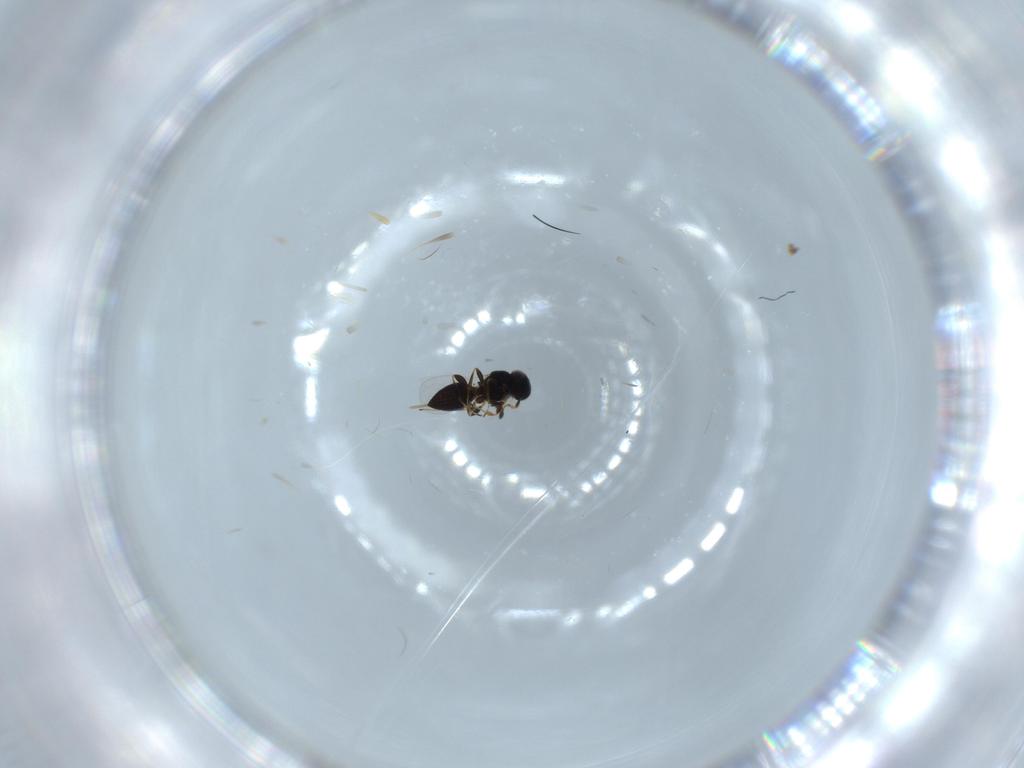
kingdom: Animalia
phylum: Arthropoda
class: Insecta
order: Hymenoptera
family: Platygastridae
